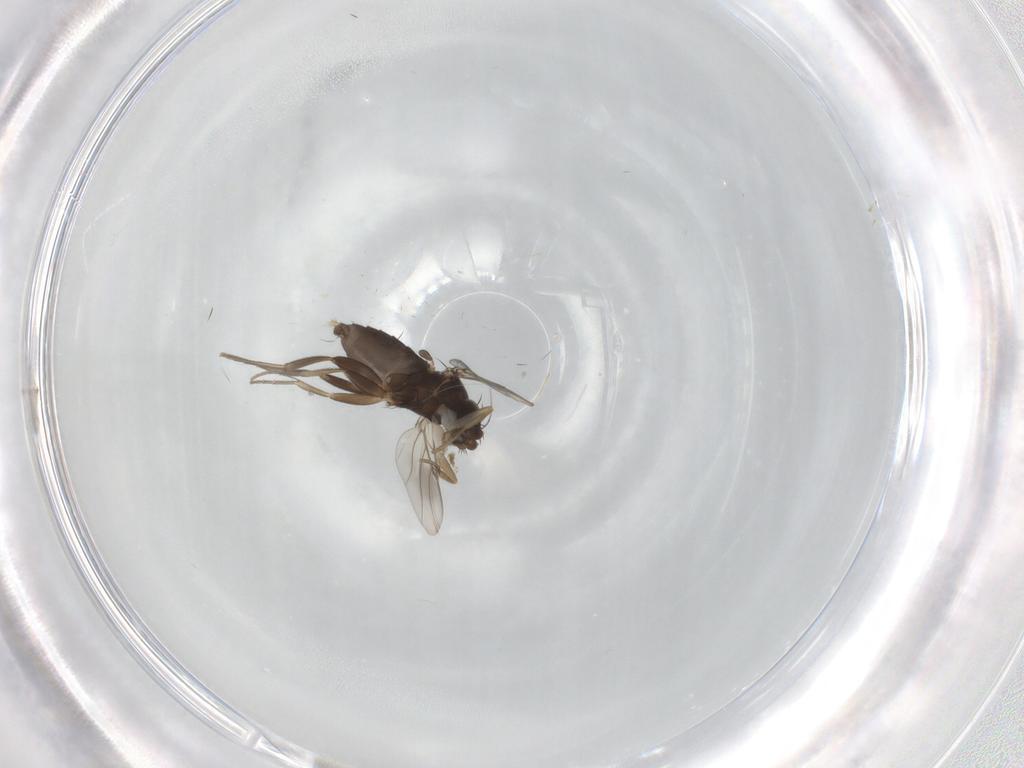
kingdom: Animalia
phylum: Arthropoda
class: Insecta
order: Diptera
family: Phoridae
